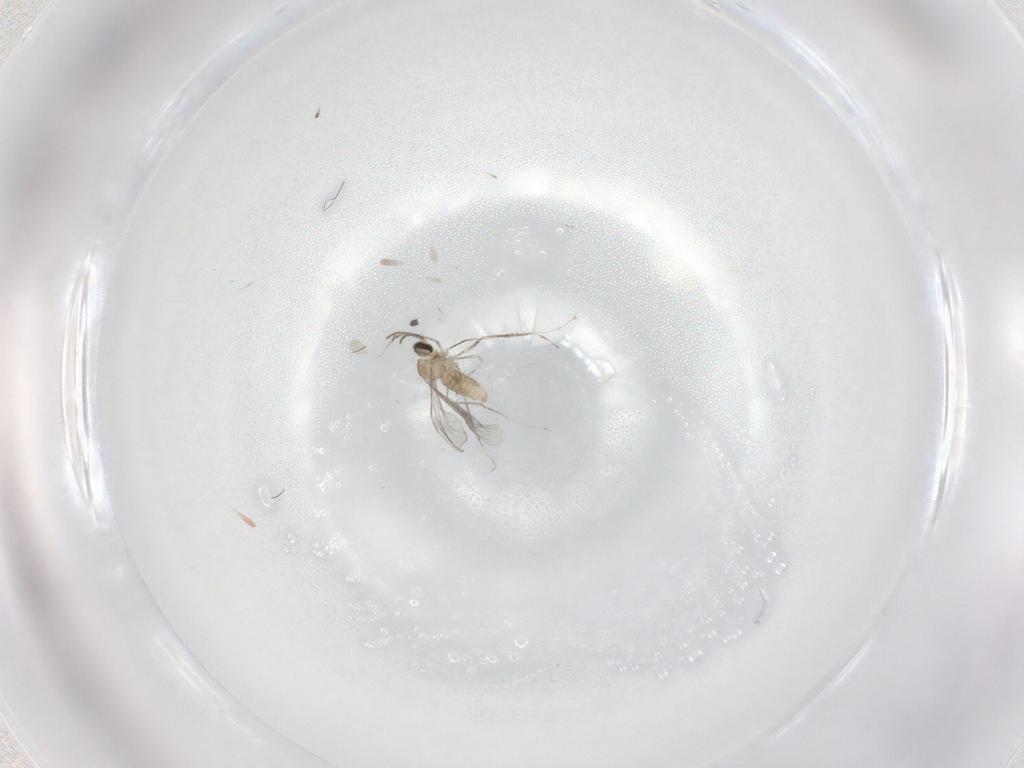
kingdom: Animalia
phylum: Arthropoda
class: Insecta
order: Diptera
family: Cecidomyiidae
